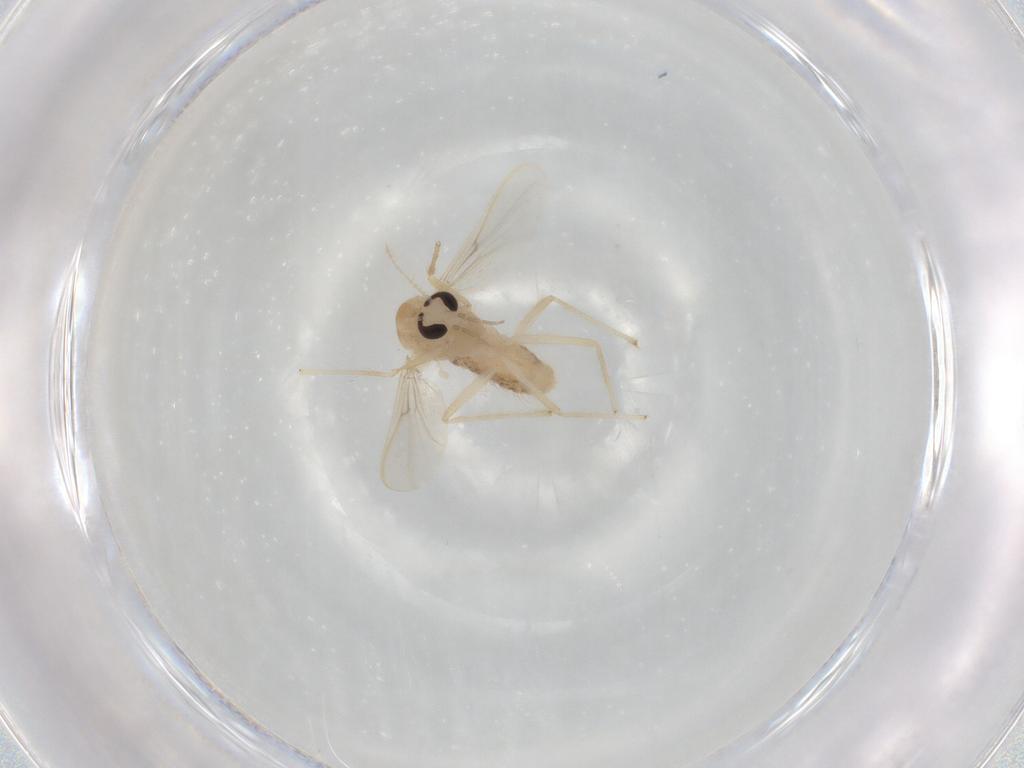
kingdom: Animalia
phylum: Arthropoda
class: Insecta
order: Diptera
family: Chironomidae
